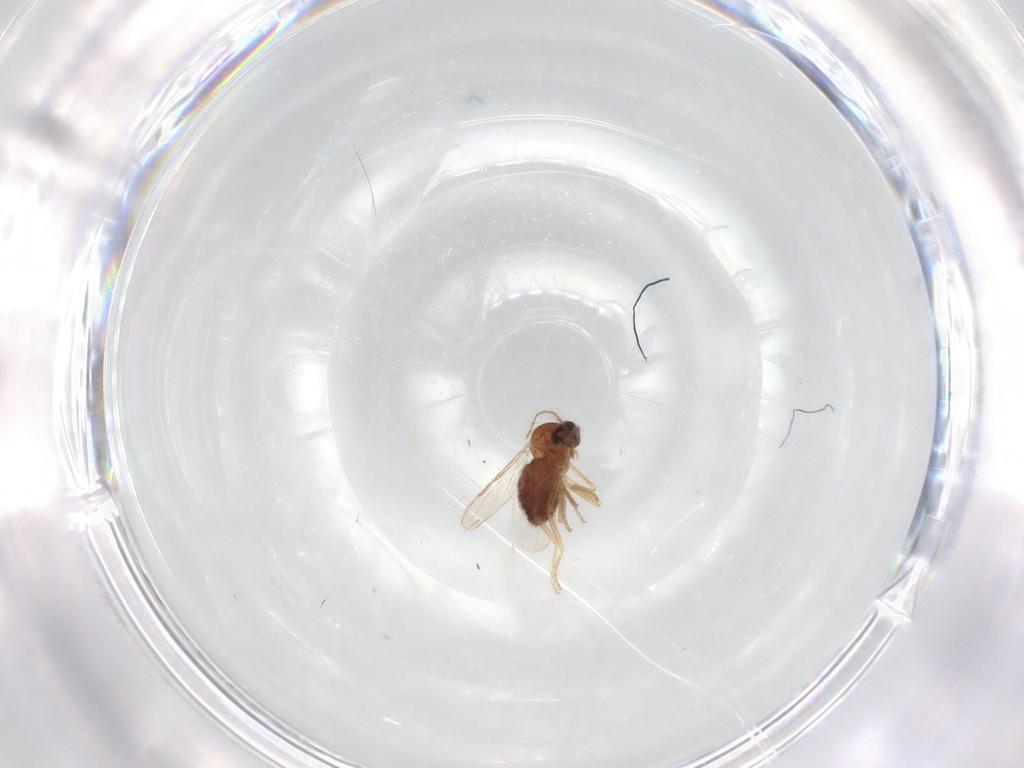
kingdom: Animalia
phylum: Arthropoda
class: Insecta
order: Diptera
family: Ceratopogonidae
